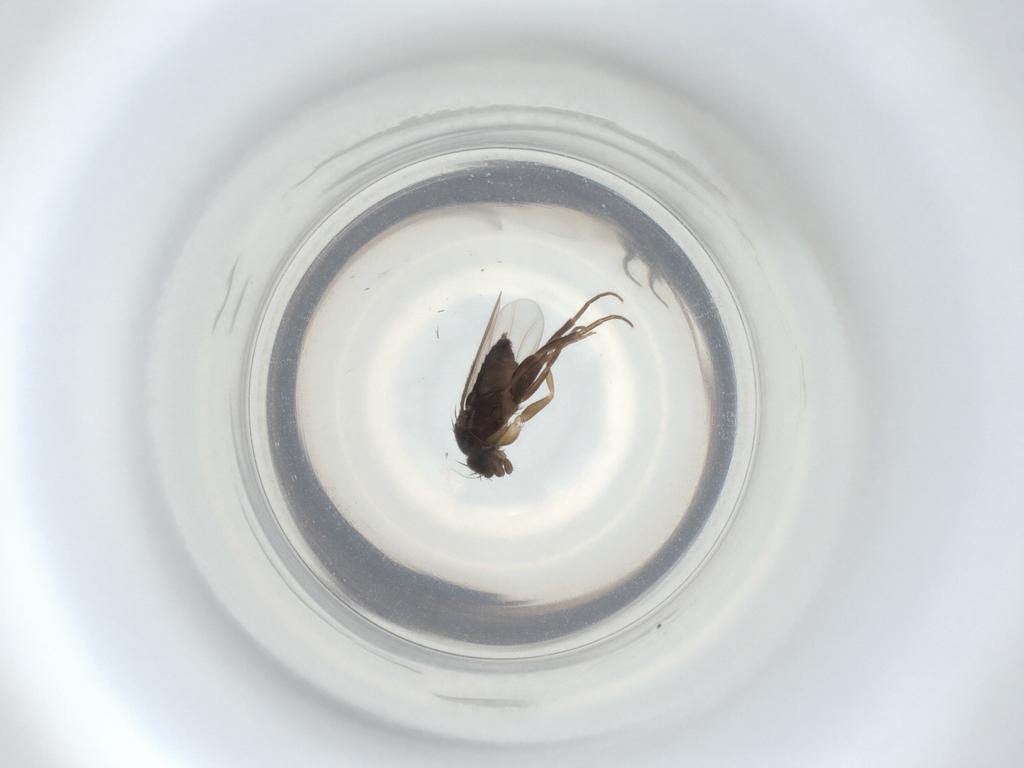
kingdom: Animalia
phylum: Arthropoda
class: Insecta
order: Diptera
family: Phoridae
